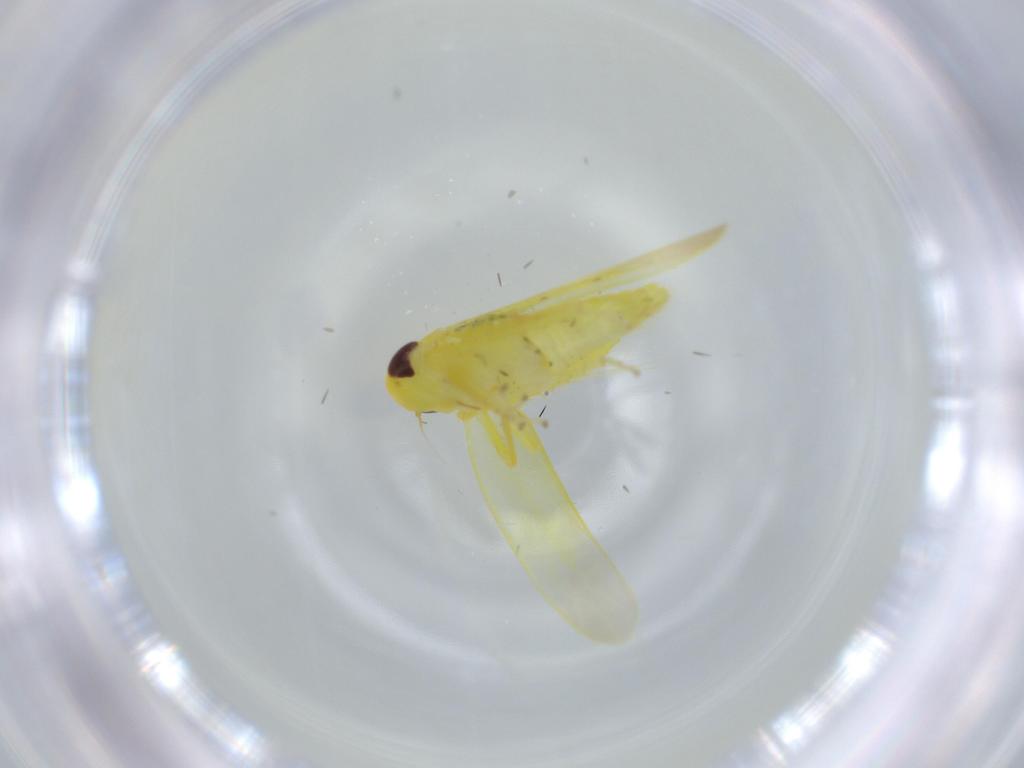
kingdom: Animalia
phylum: Arthropoda
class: Insecta
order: Hemiptera
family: Cicadellidae
